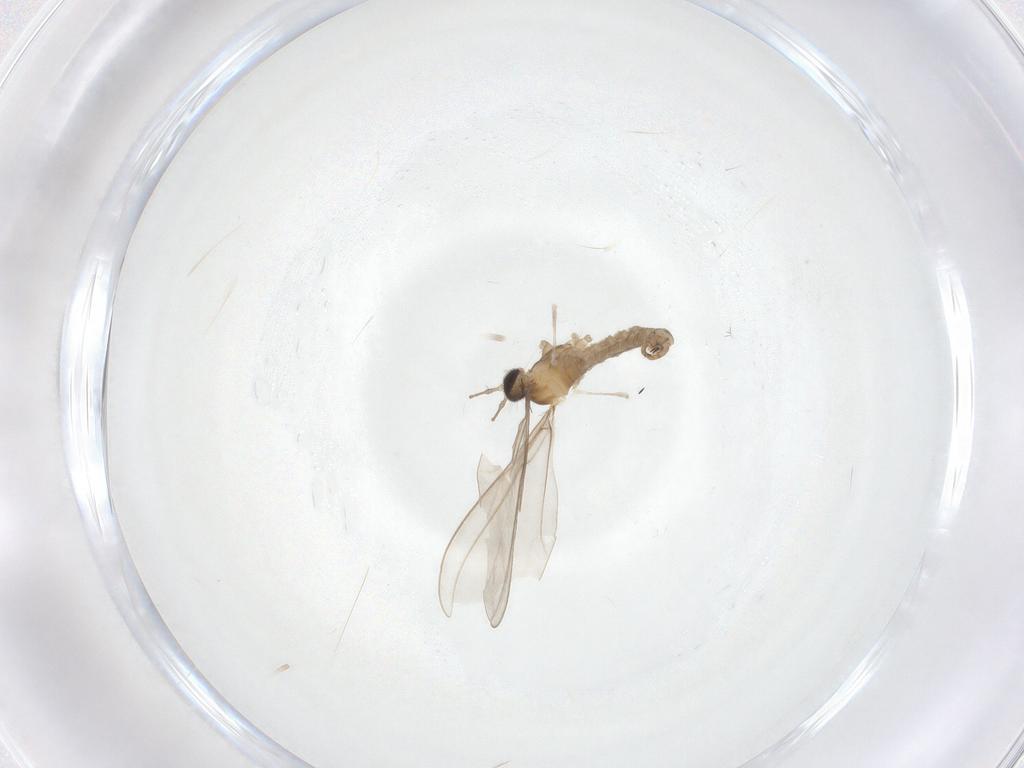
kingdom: Animalia
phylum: Arthropoda
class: Insecta
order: Diptera
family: Cecidomyiidae
